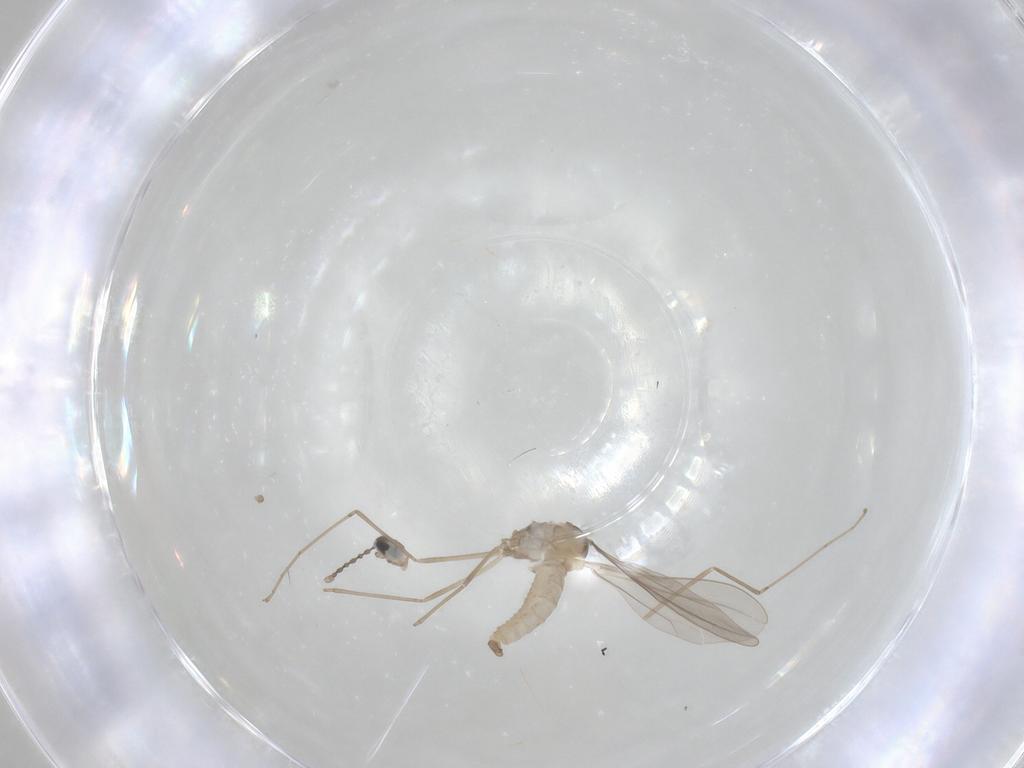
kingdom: Animalia
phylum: Arthropoda
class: Insecta
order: Diptera
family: Cecidomyiidae
